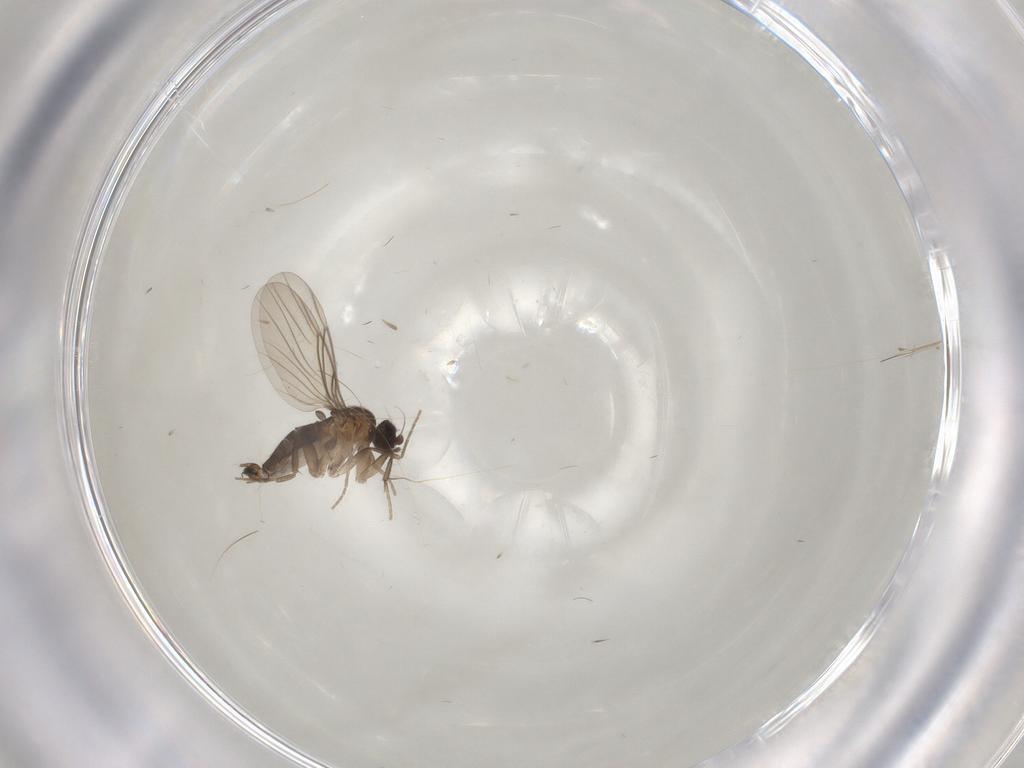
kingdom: Animalia
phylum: Arthropoda
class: Insecta
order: Diptera
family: Phoridae
